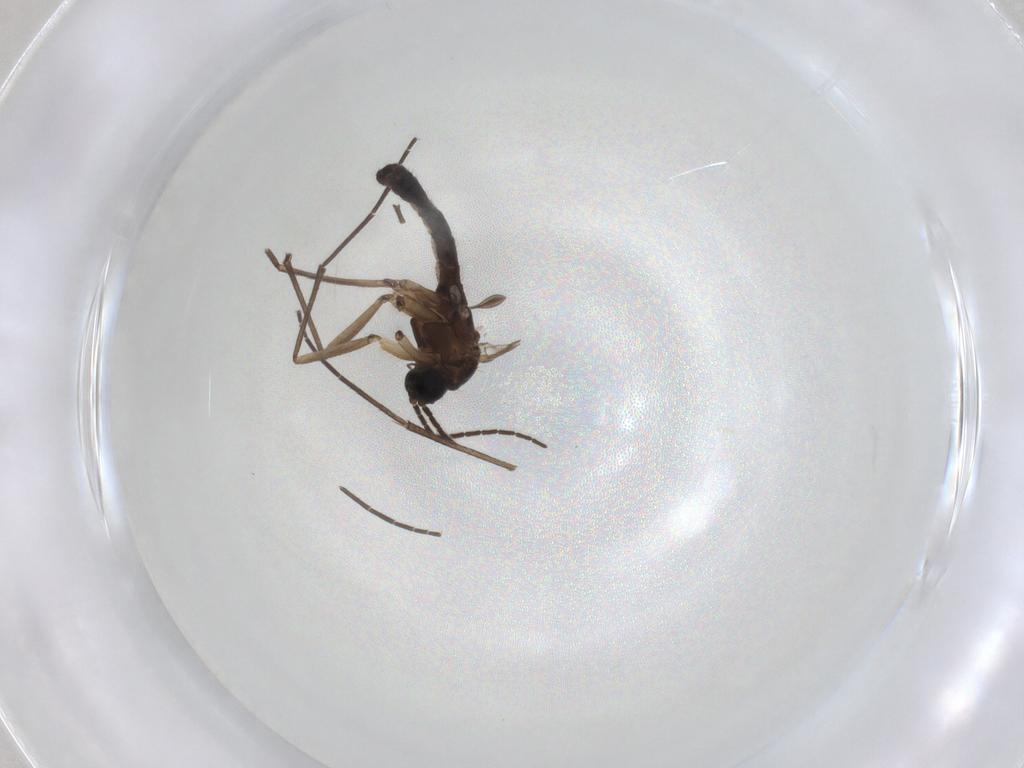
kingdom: Animalia
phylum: Arthropoda
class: Insecta
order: Diptera
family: Sciaridae
